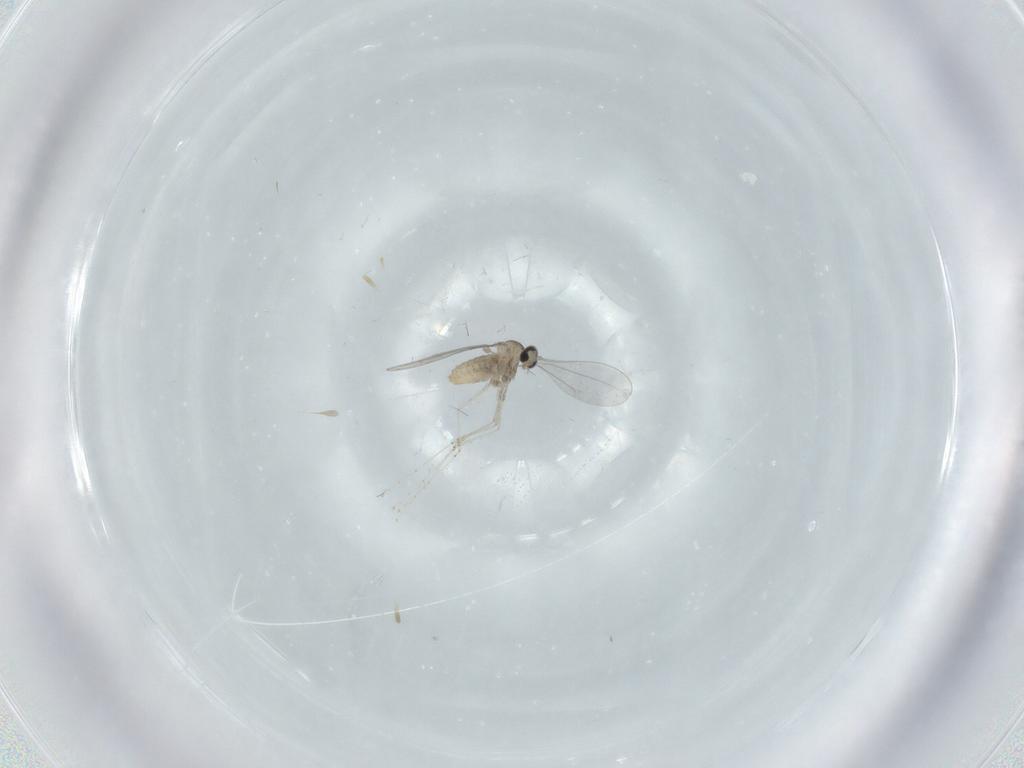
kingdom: Animalia
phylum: Arthropoda
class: Insecta
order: Diptera
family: Cecidomyiidae
